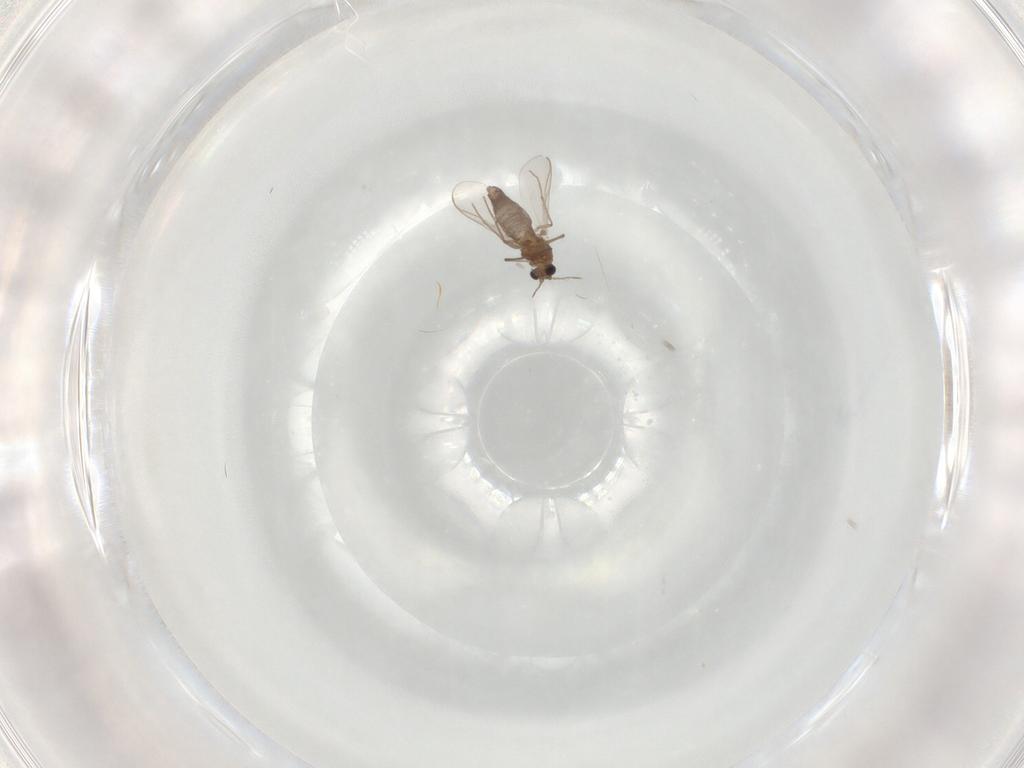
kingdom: Animalia
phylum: Arthropoda
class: Insecta
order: Diptera
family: Chironomidae
